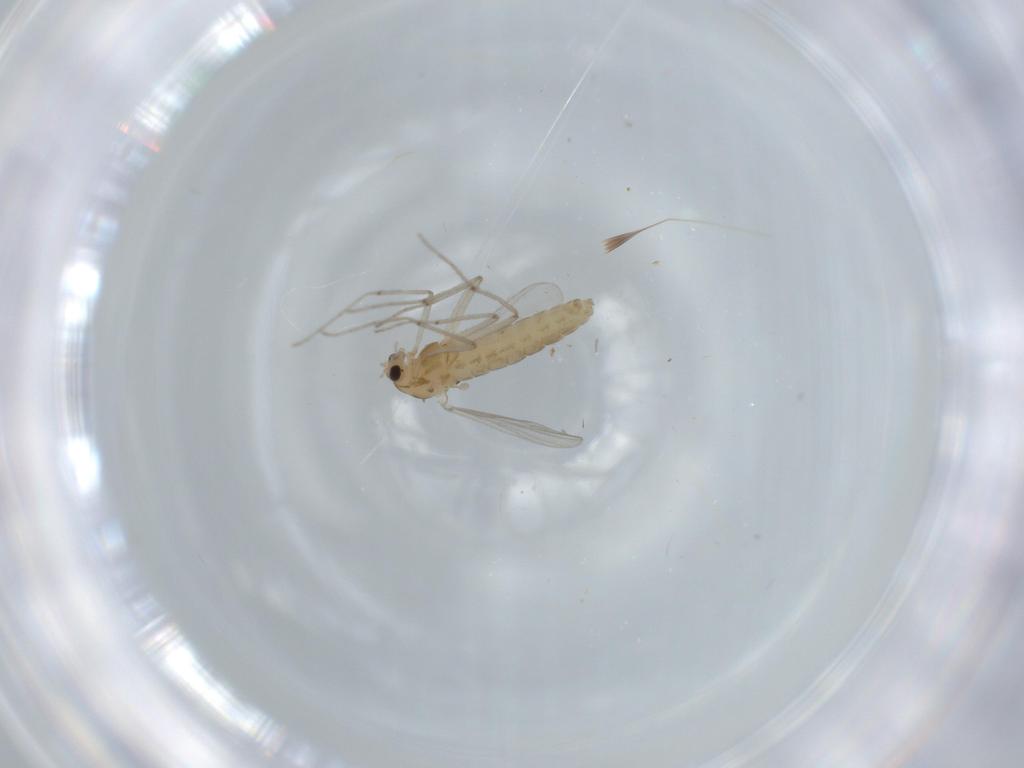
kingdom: Animalia
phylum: Arthropoda
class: Insecta
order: Diptera
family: Chironomidae
